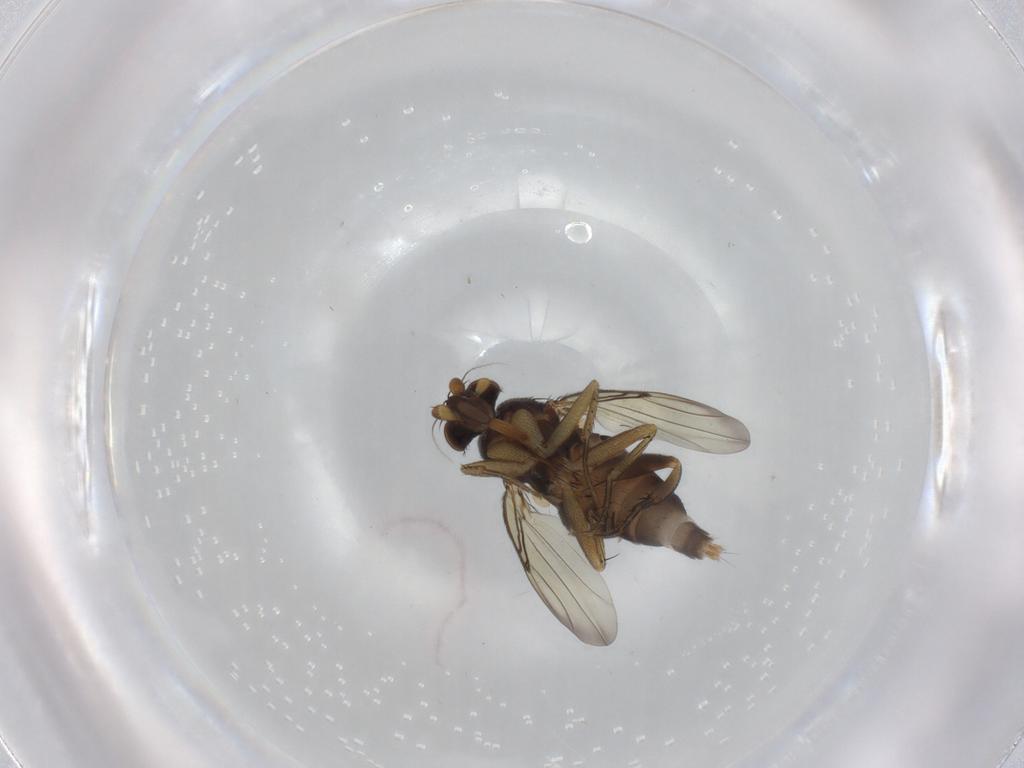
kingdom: Animalia
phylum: Arthropoda
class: Insecta
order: Diptera
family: Phoridae
